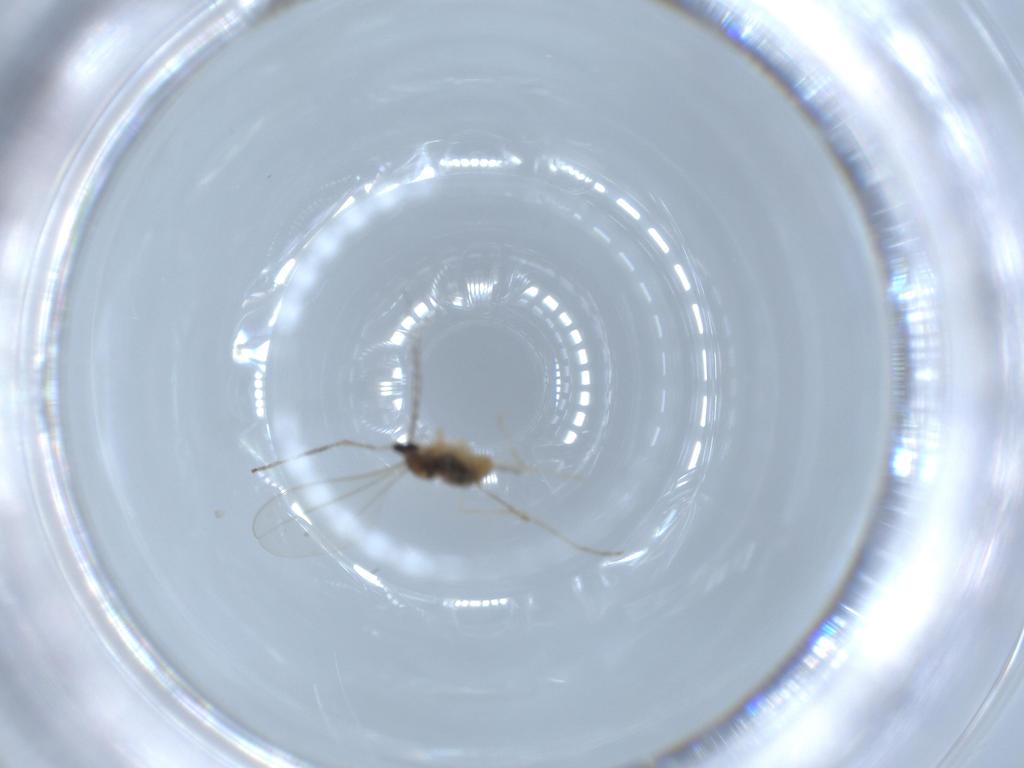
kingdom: Animalia
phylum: Arthropoda
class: Insecta
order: Diptera
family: Cecidomyiidae
